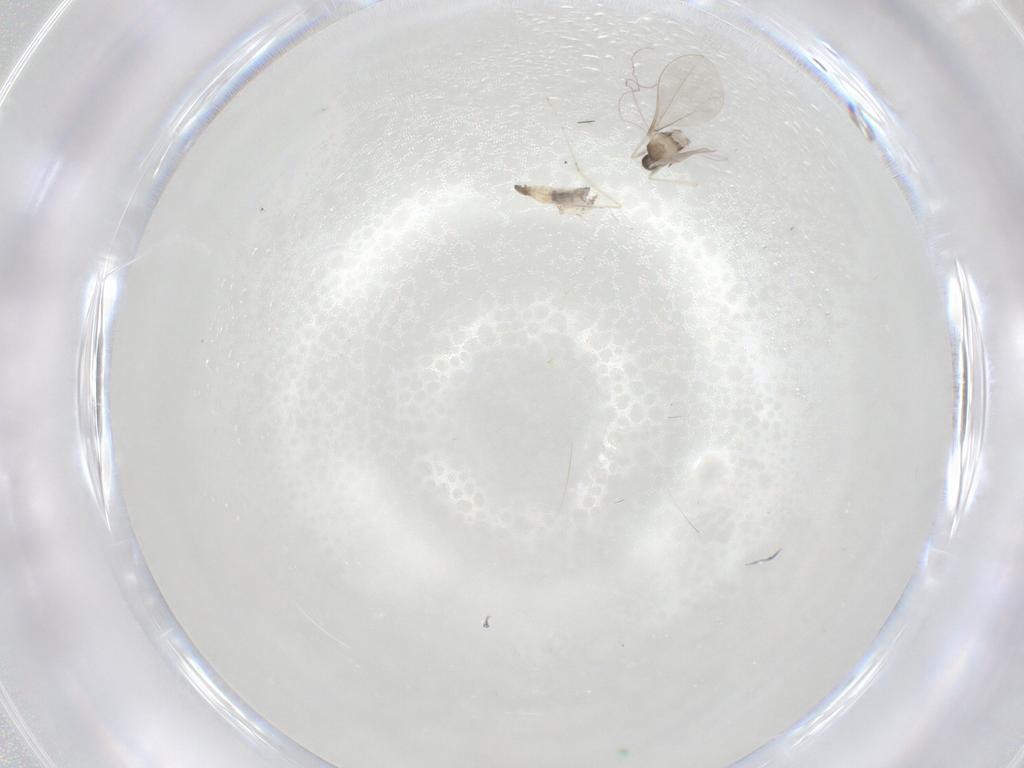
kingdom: Animalia
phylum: Arthropoda
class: Insecta
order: Diptera
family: Cecidomyiidae
